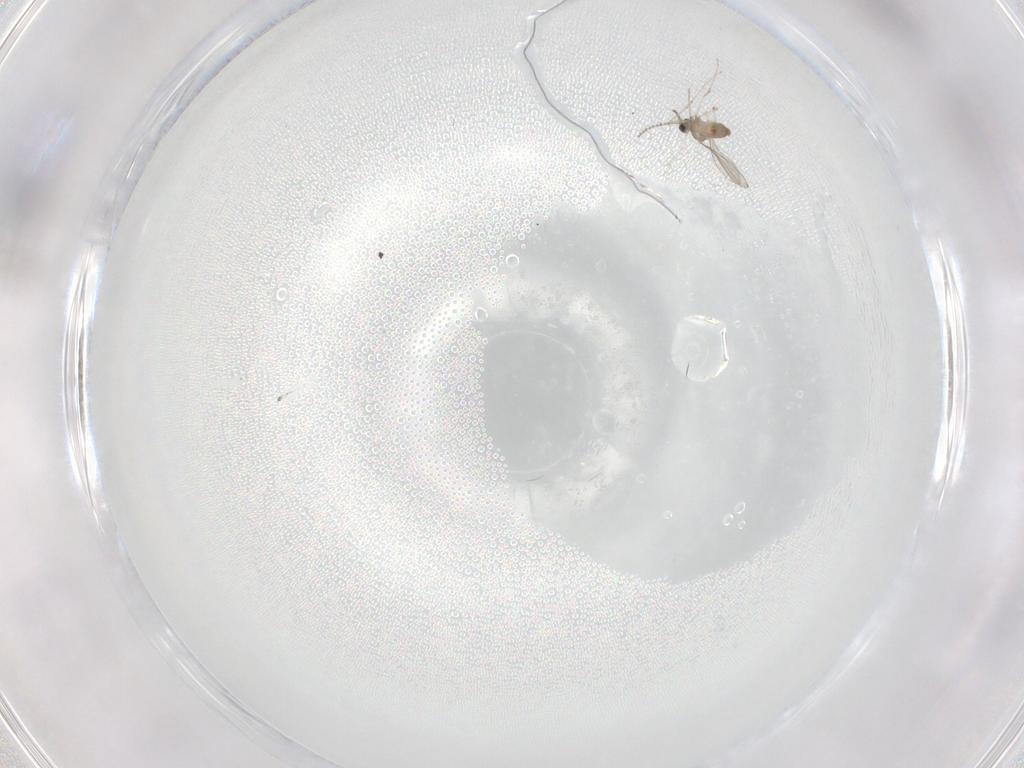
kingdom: Animalia
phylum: Arthropoda
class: Insecta
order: Diptera
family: Cecidomyiidae
